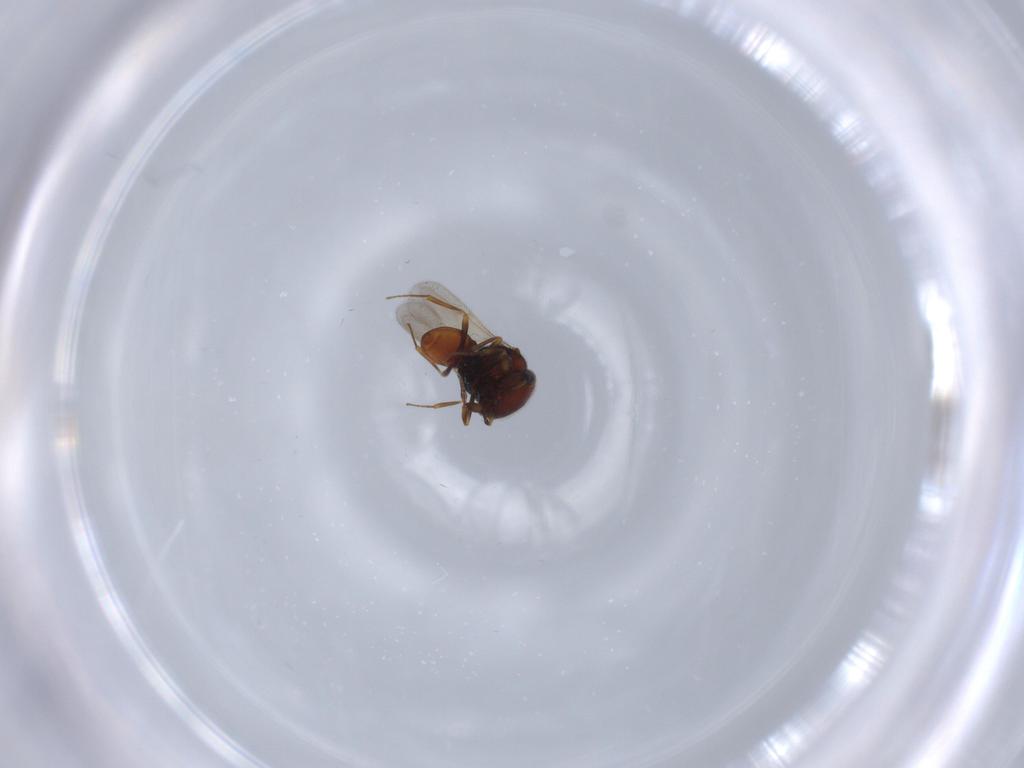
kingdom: Animalia
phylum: Arthropoda
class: Insecta
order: Hymenoptera
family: Scelionidae
